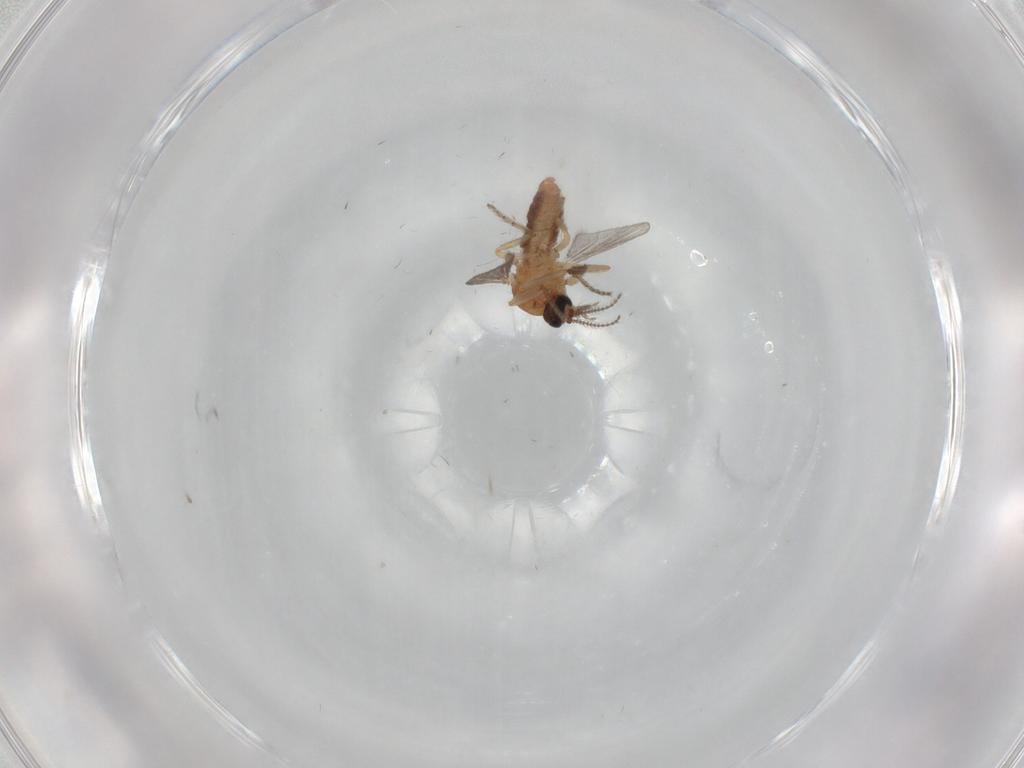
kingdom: Animalia
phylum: Arthropoda
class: Insecta
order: Diptera
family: Ceratopogonidae
